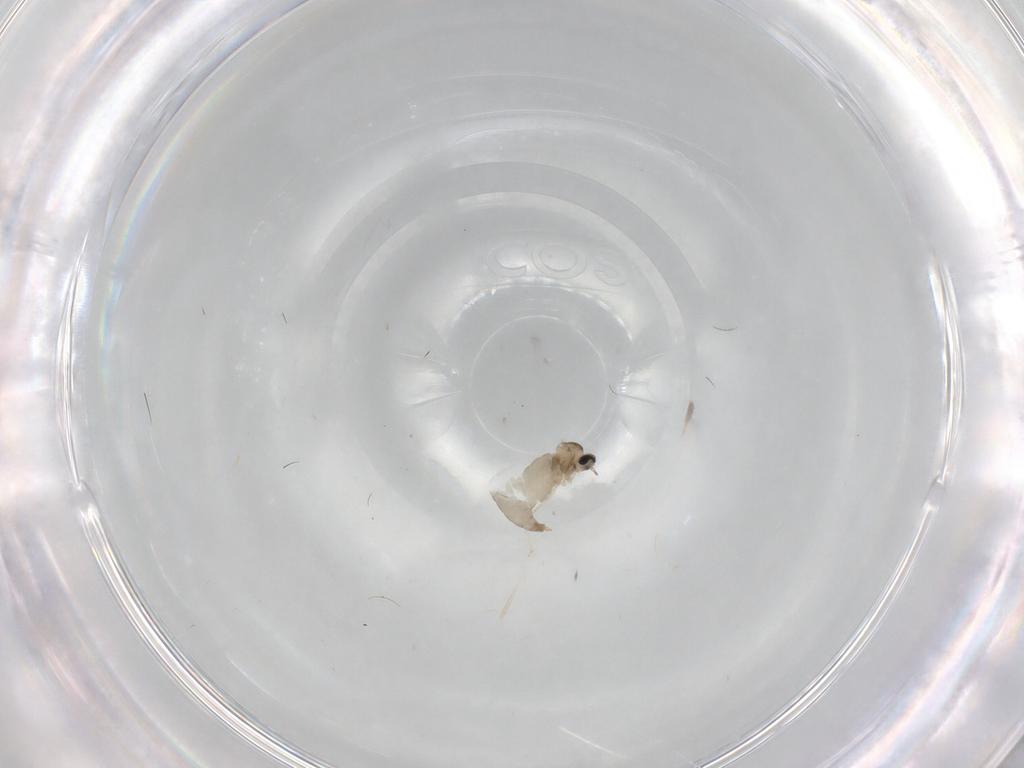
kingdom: Animalia
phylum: Arthropoda
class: Insecta
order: Diptera
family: Cecidomyiidae
